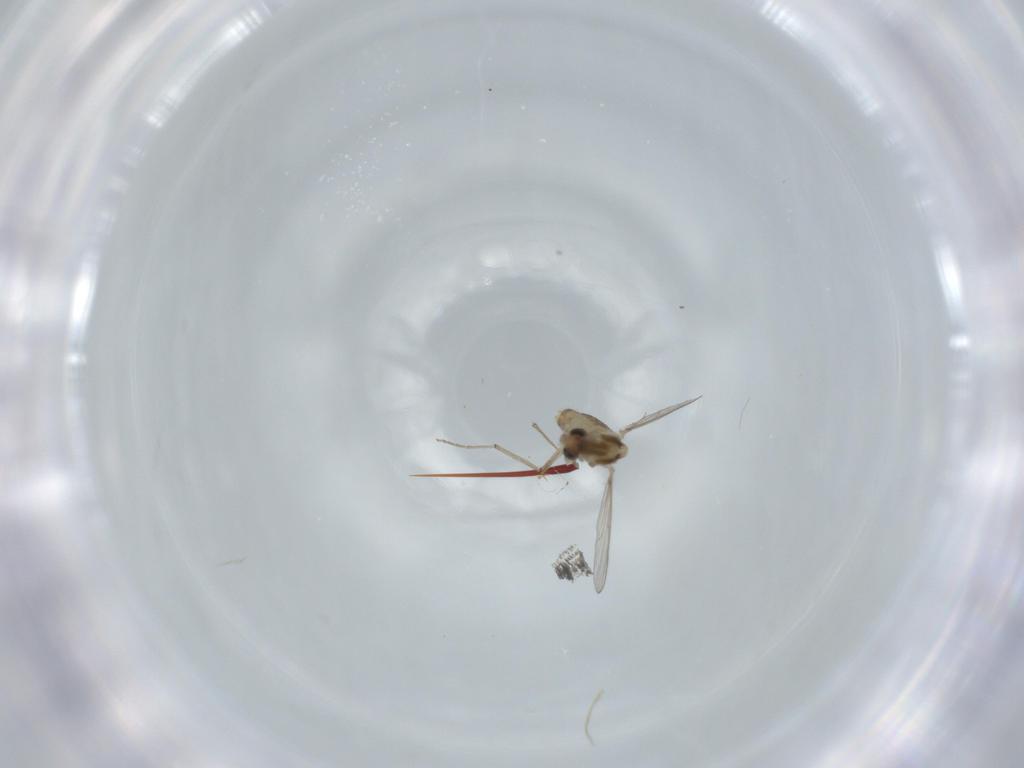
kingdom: Animalia
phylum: Arthropoda
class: Insecta
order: Diptera
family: Chironomidae
